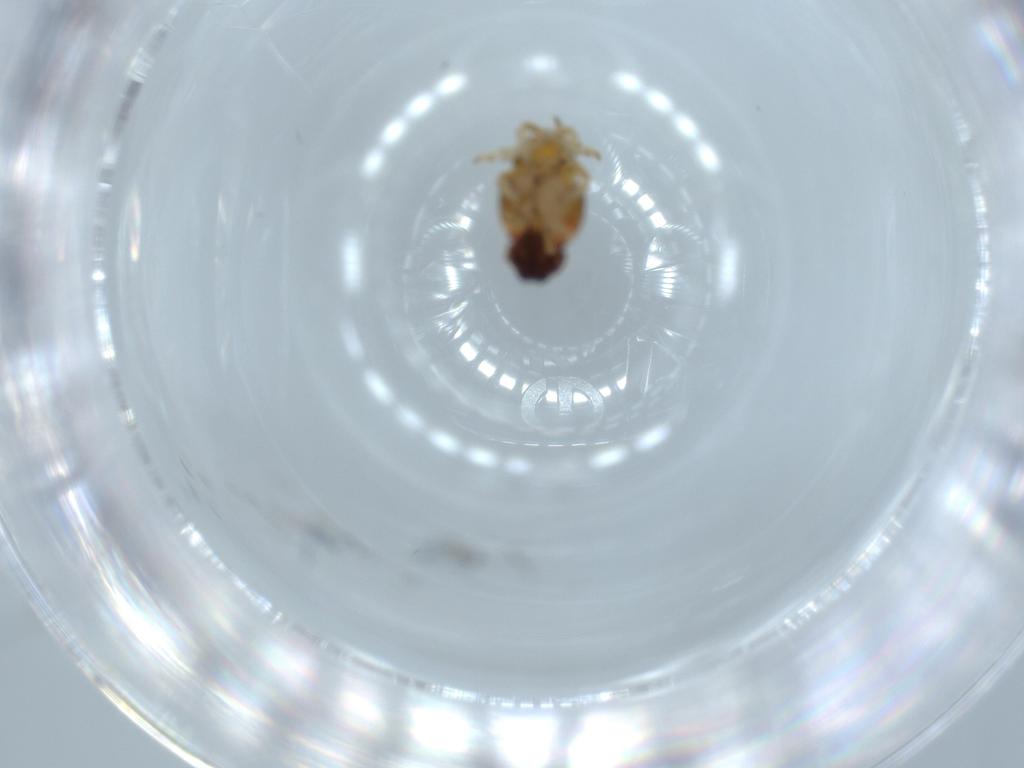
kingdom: Animalia
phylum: Arthropoda
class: Insecta
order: Hemiptera
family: Issidae
